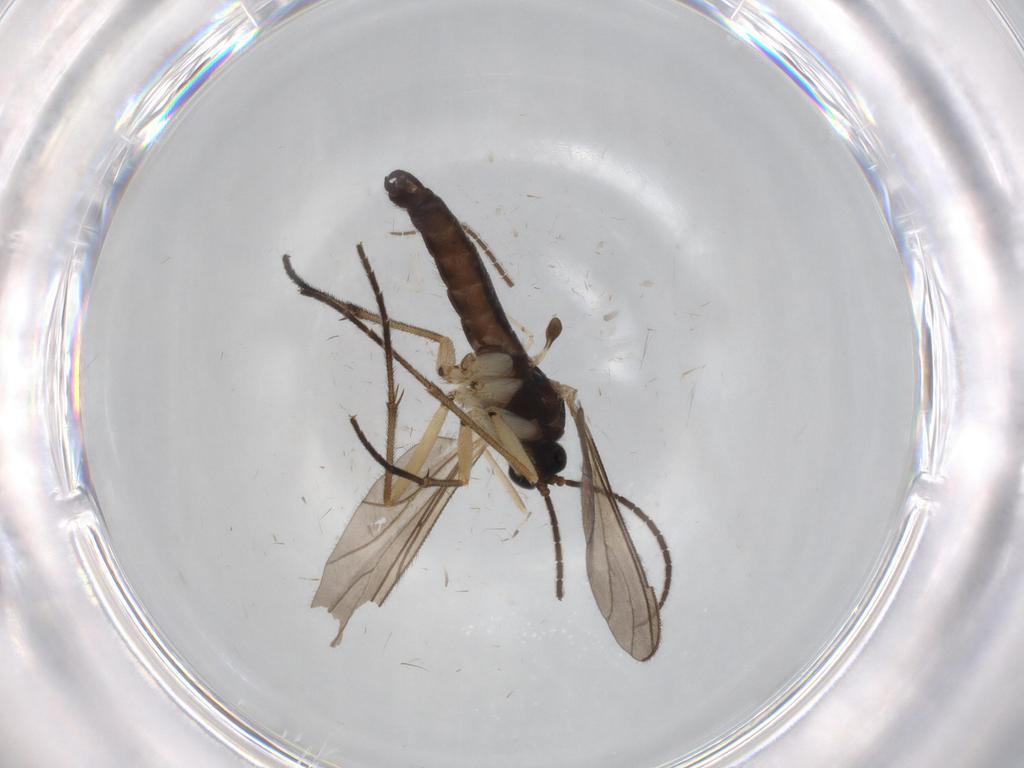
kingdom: Animalia
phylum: Arthropoda
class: Insecta
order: Diptera
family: Sciaridae
